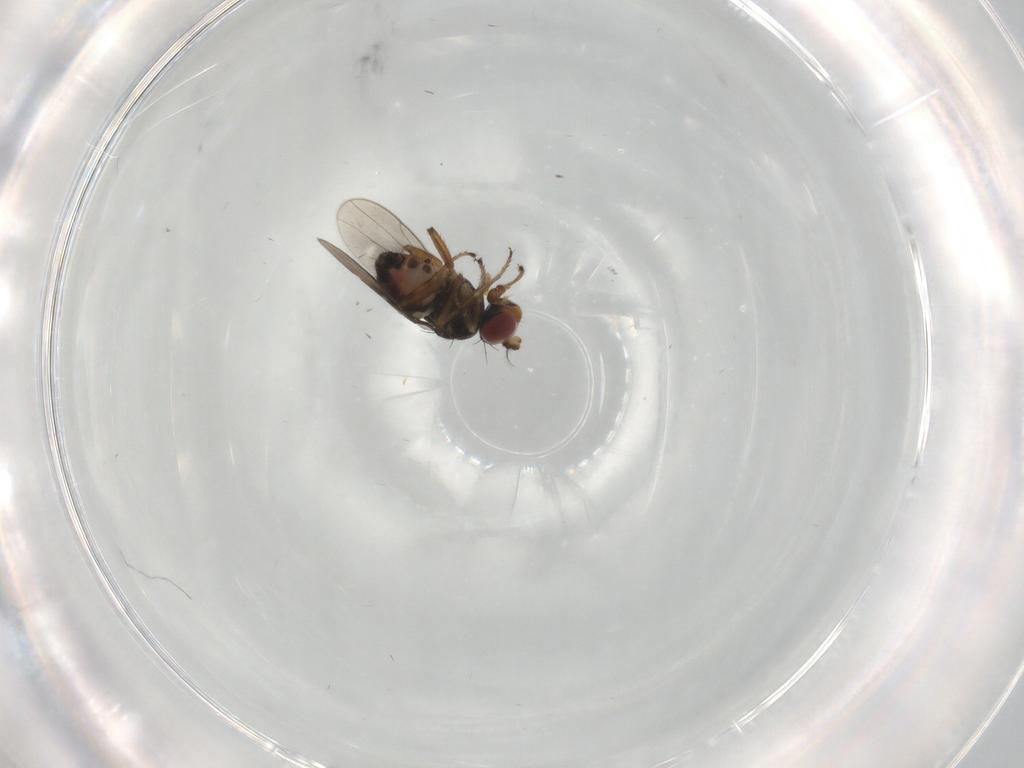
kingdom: Animalia
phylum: Arthropoda
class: Insecta
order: Diptera
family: Ephydridae
